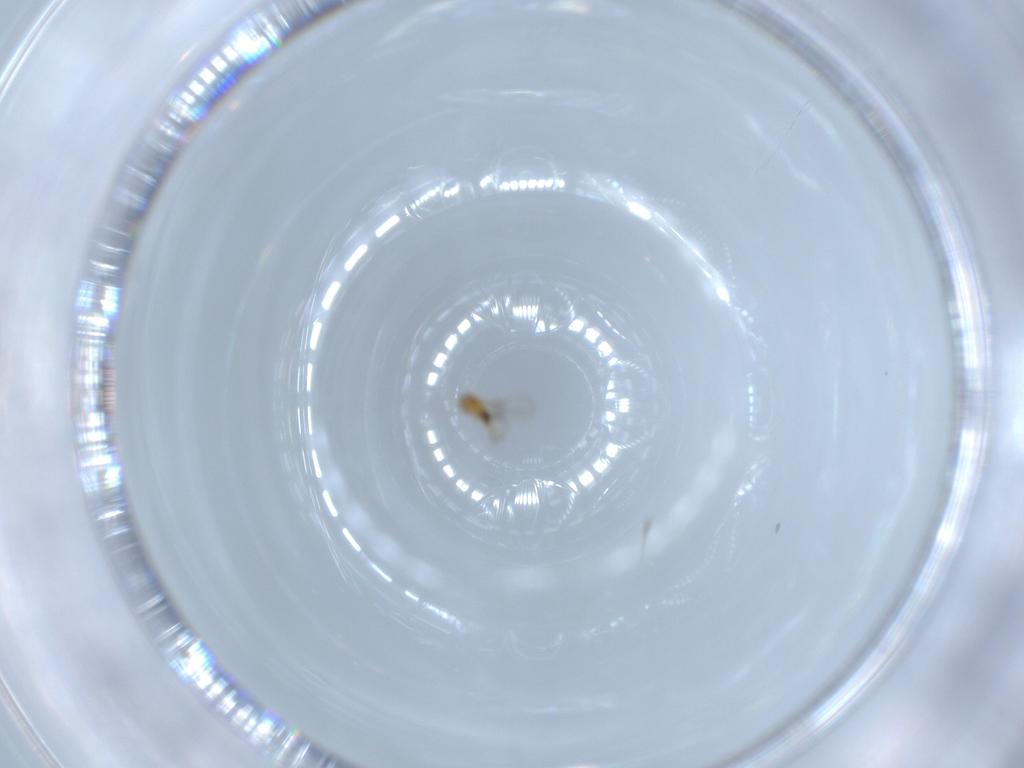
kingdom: Animalia
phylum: Arthropoda
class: Insecta
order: Hymenoptera
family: Trichogrammatidae
